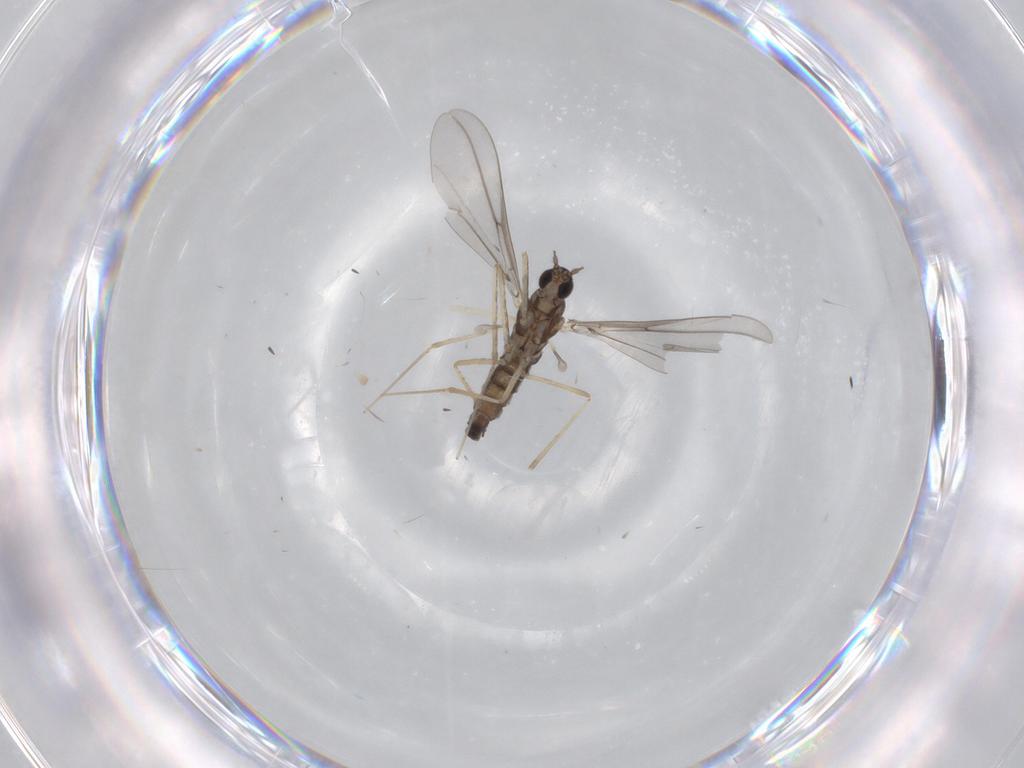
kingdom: Animalia
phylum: Arthropoda
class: Insecta
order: Diptera
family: Cecidomyiidae
